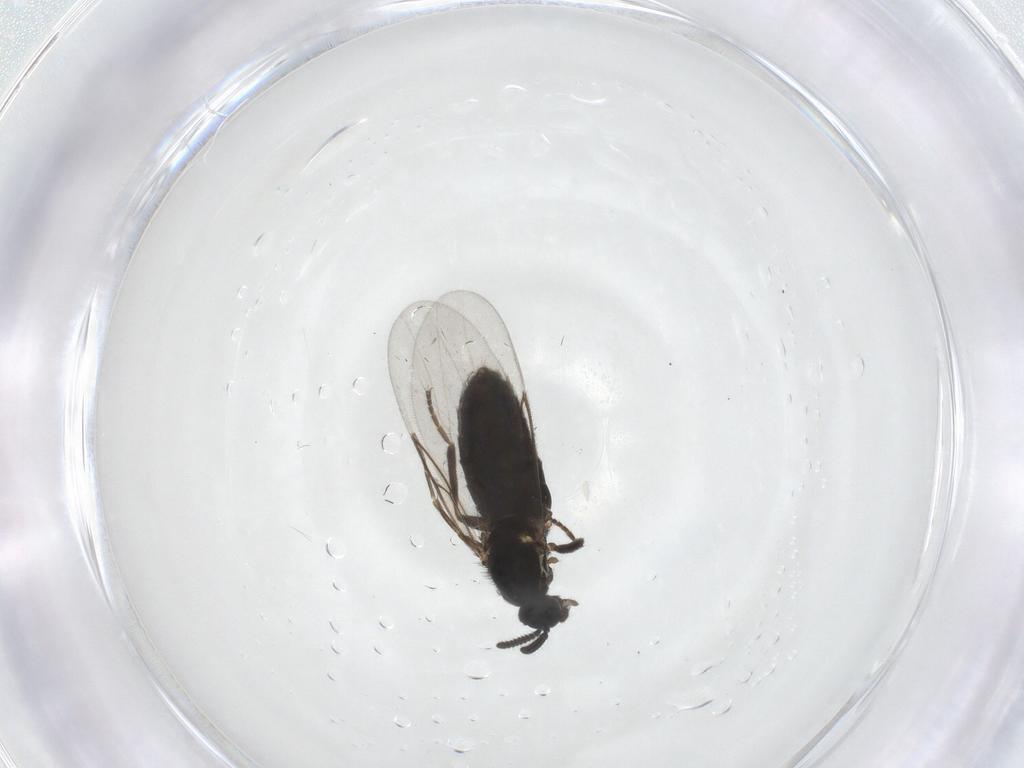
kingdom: Animalia
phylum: Arthropoda
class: Insecta
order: Diptera
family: Scatopsidae
